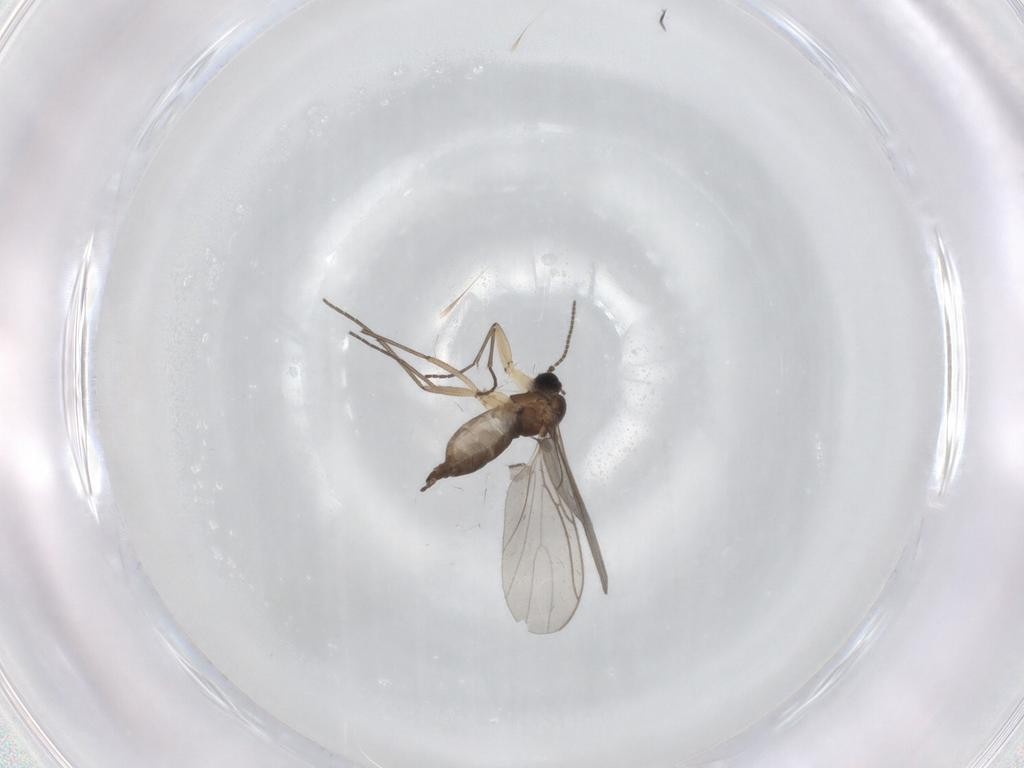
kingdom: Animalia
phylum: Arthropoda
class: Insecta
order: Diptera
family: Sciaridae
